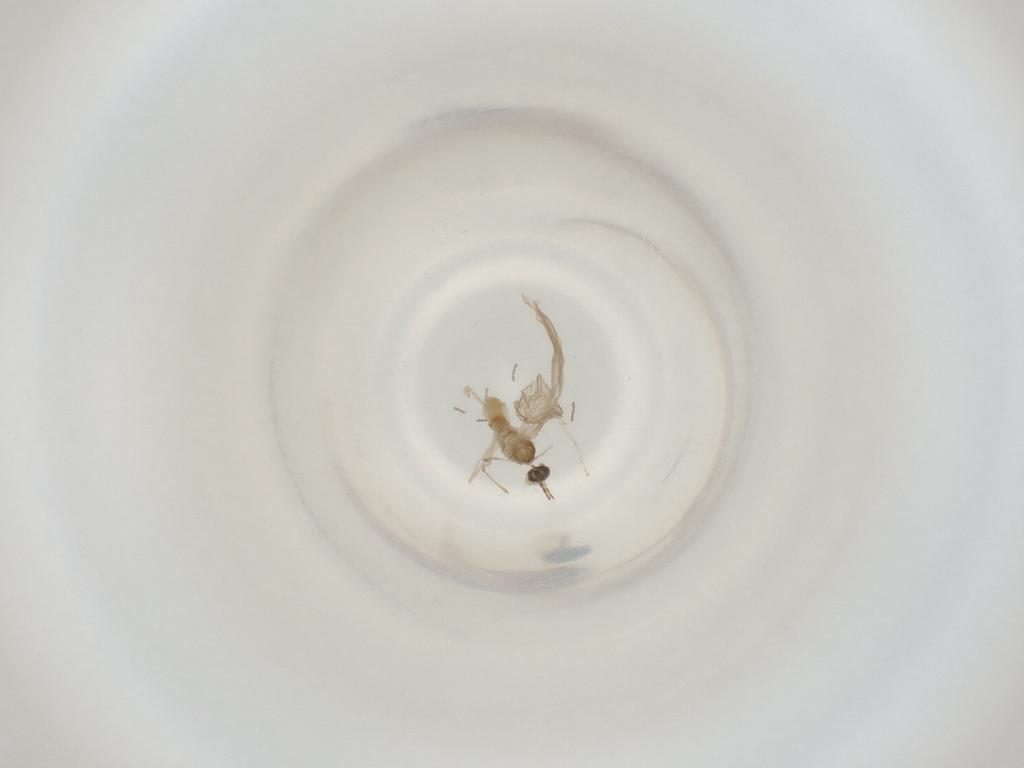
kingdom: Animalia
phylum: Arthropoda
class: Insecta
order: Diptera
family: Cecidomyiidae
